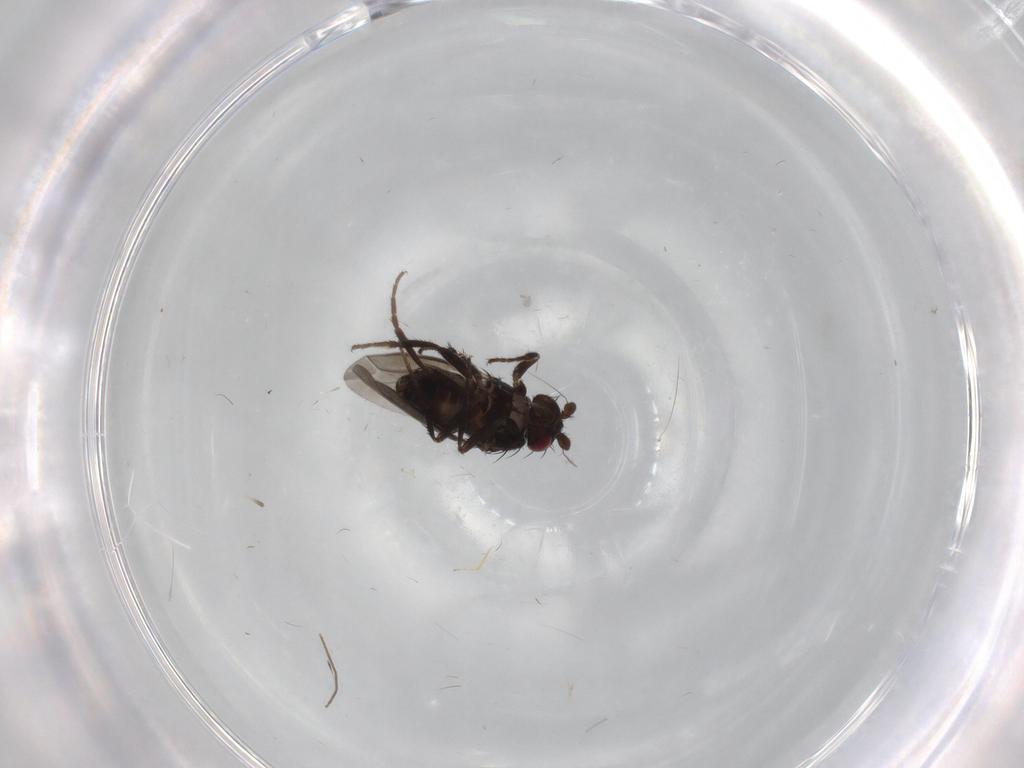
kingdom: Animalia
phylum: Arthropoda
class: Insecta
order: Diptera
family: Sphaeroceridae
